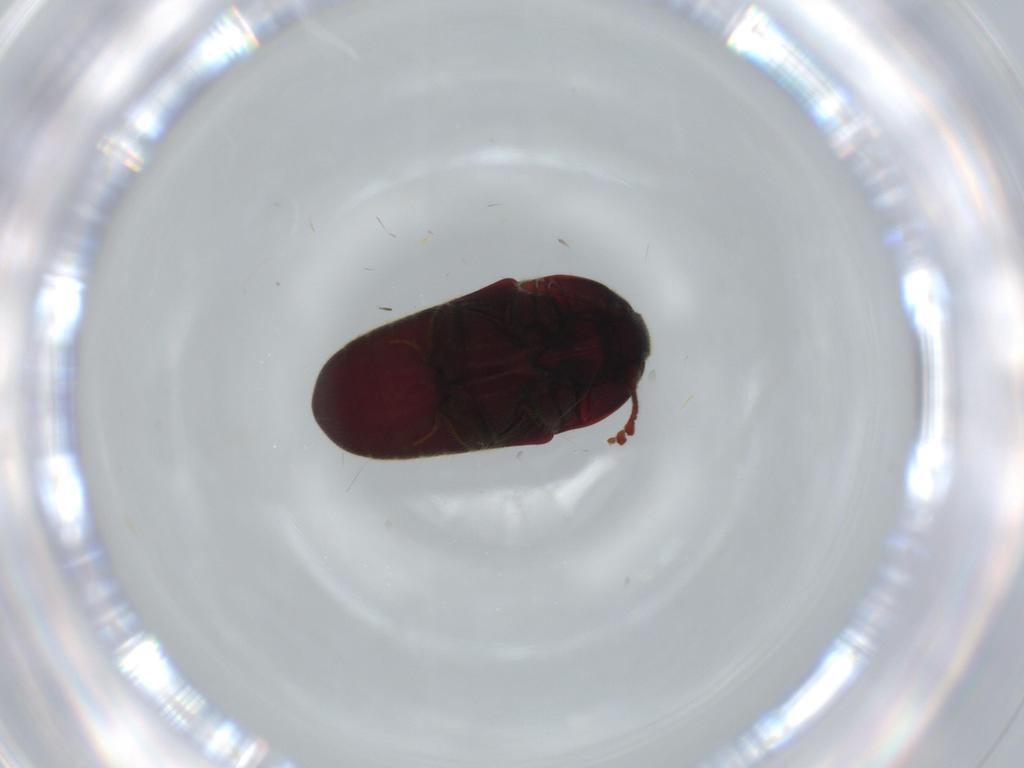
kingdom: Animalia
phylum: Arthropoda
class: Insecta
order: Coleoptera
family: Throscidae
